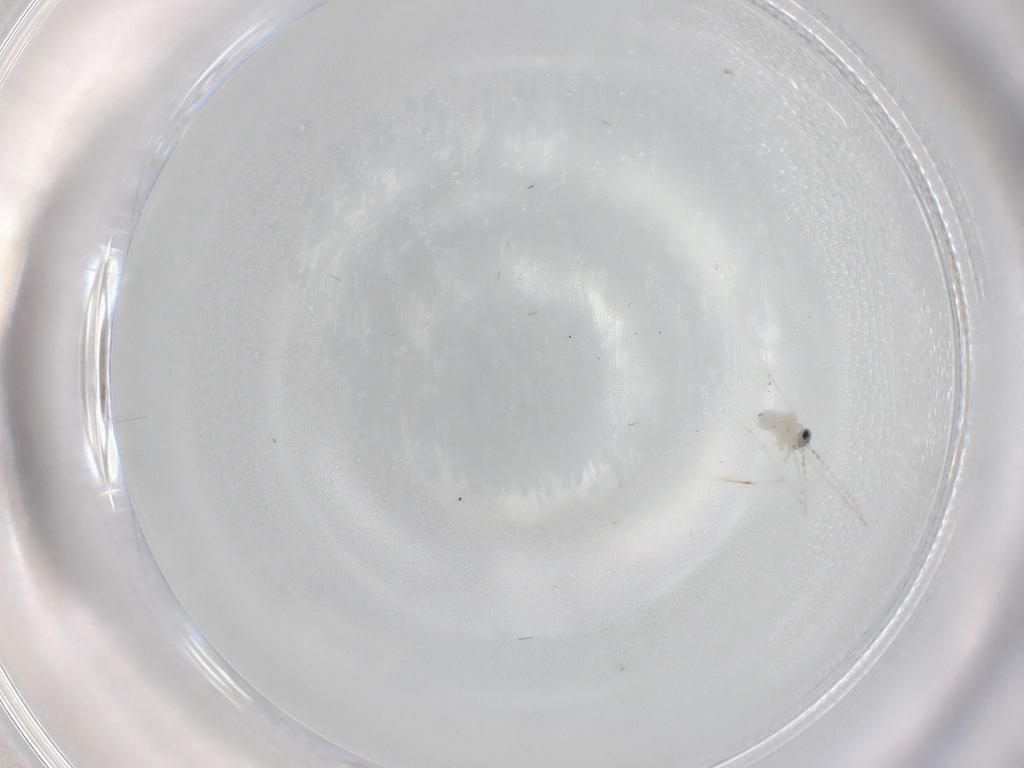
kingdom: Animalia
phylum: Arthropoda
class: Insecta
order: Diptera
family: Cecidomyiidae
